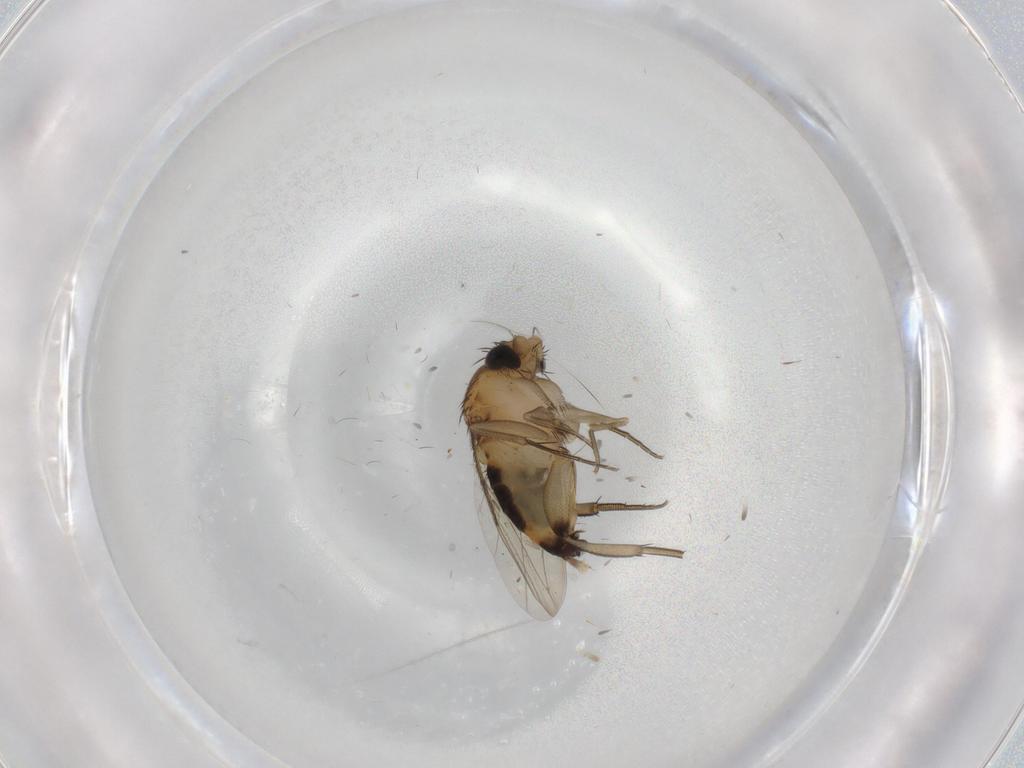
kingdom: Animalia
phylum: Arthropoda
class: Insecta
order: Diptera
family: Phoridae
